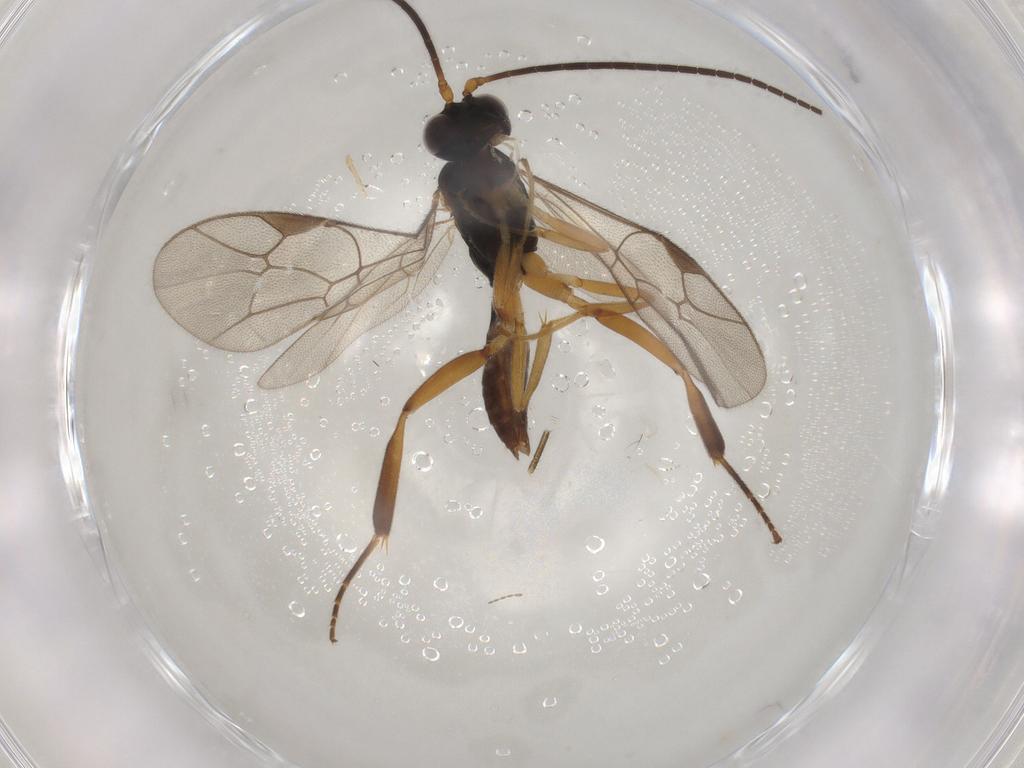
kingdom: Animalia
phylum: Arthropoda
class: Insecta
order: Hymenoptera
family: Ichneumonidae
